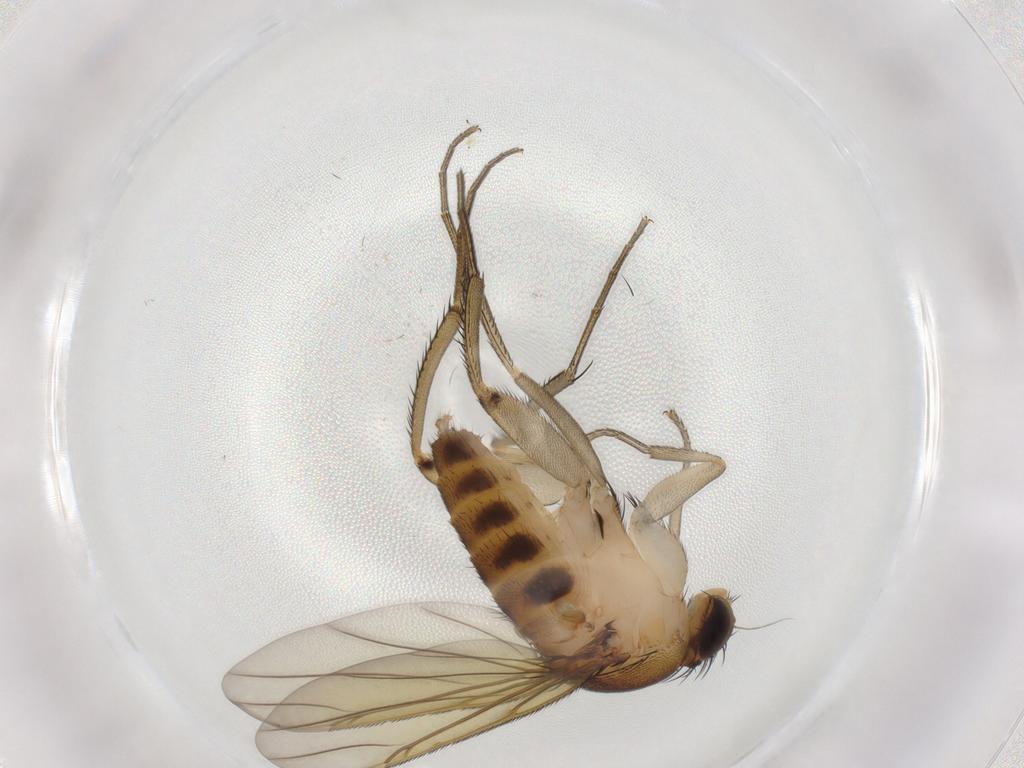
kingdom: Animalia
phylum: Arthropoda
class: Insecta
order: Diptera
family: Phoridae
